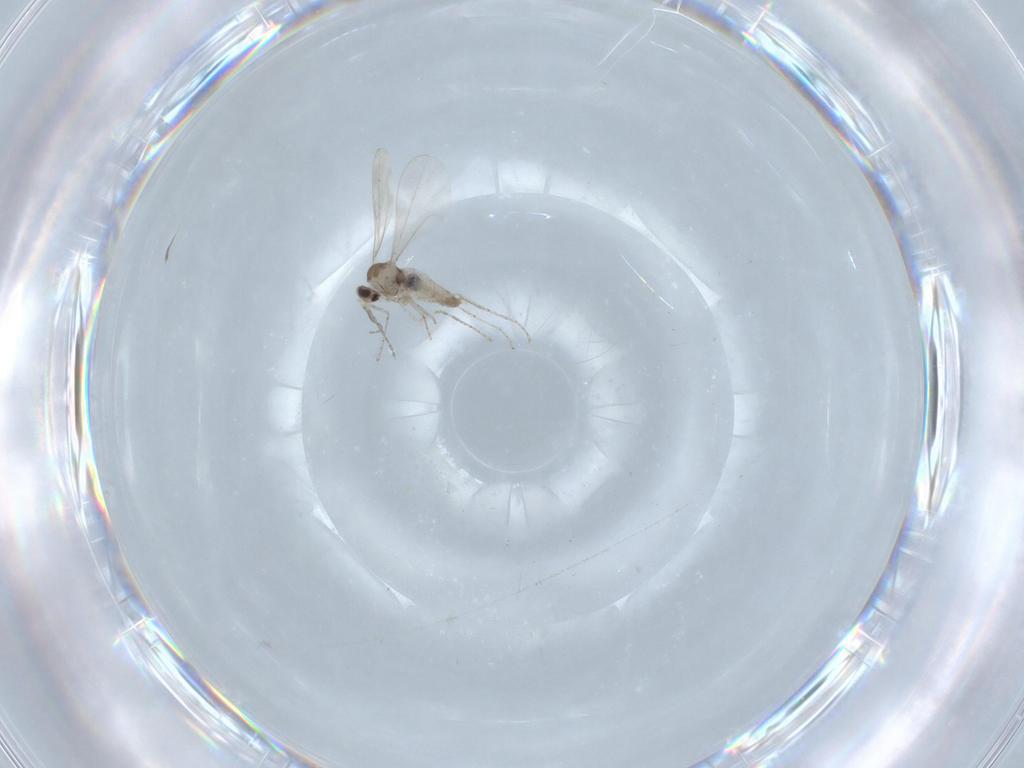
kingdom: Animalia
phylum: Arthropoda
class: Insecta
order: Diptera
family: Cecidomyiidae
